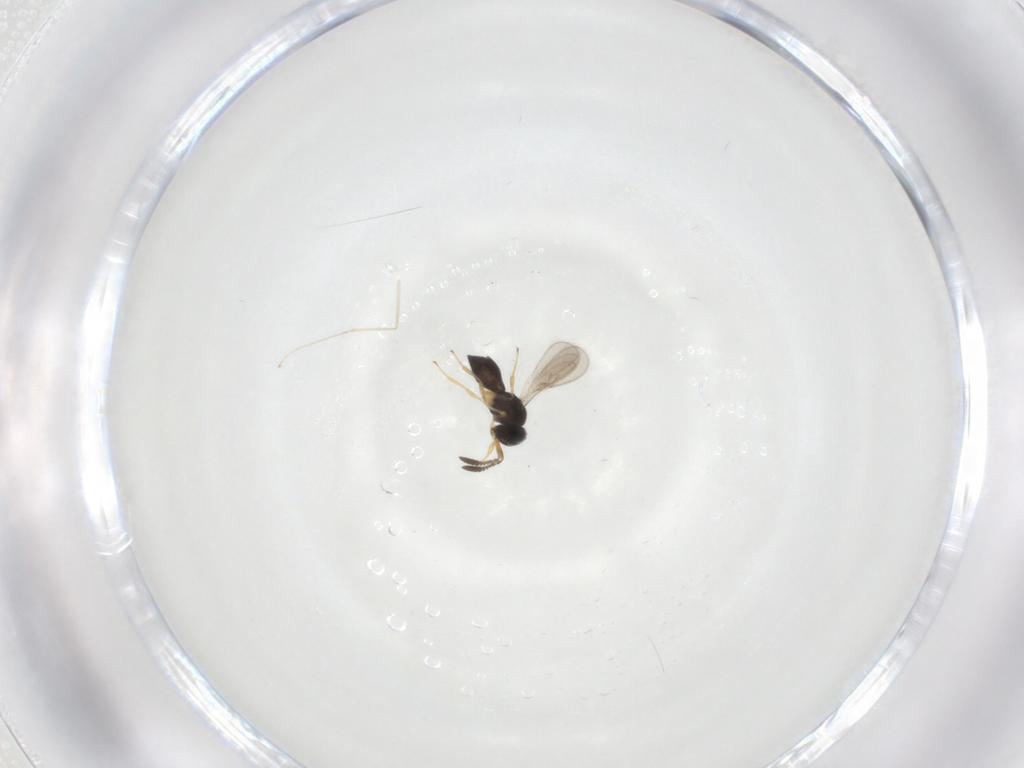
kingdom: Animalia
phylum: Arthropoda
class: Insecta
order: Hymenoptera
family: Scelionidae
